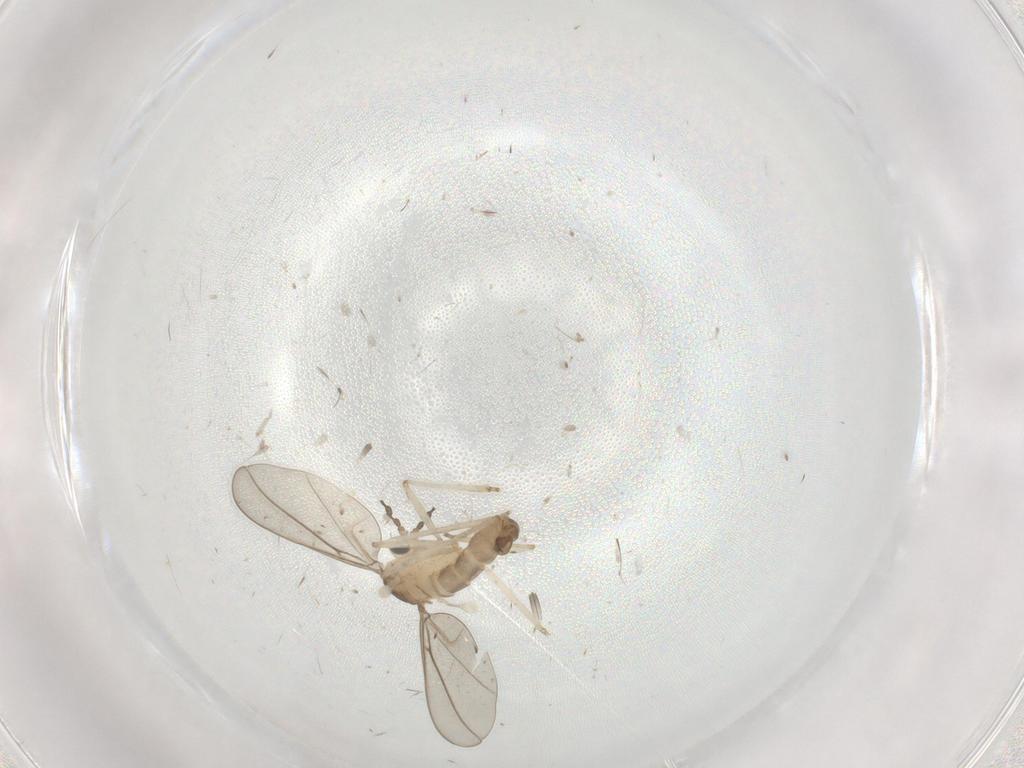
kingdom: Animalia
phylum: Arthropoda
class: Insecta
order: Diptera
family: Cecidomyiidae
